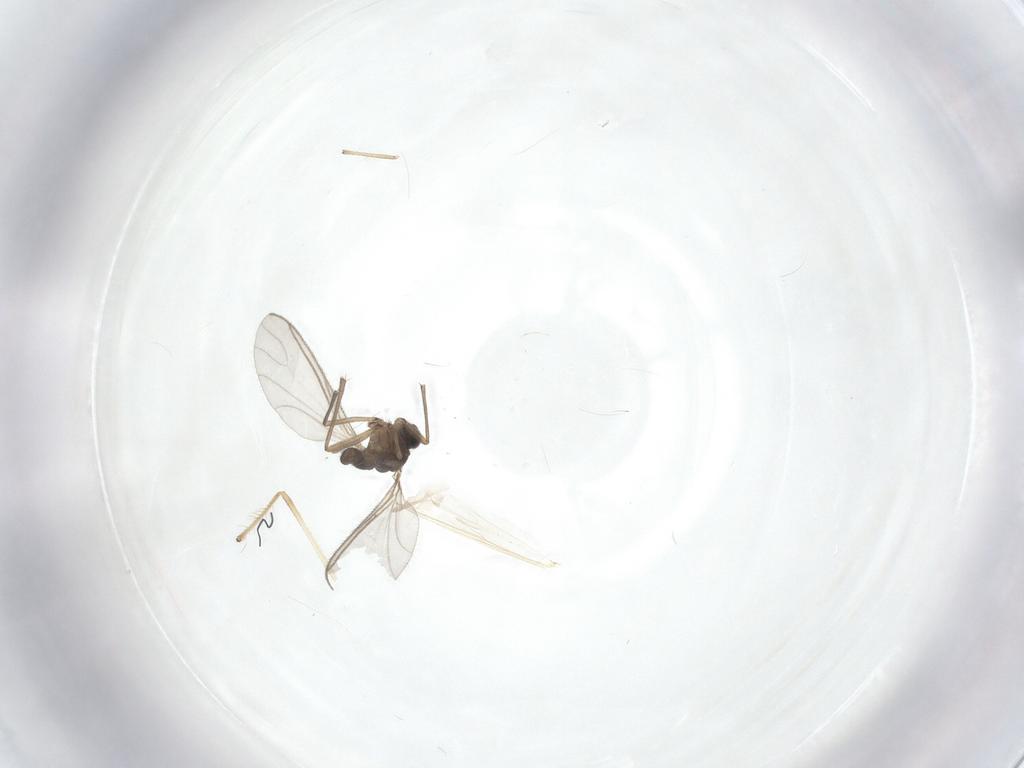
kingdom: Animalia
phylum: Arthropoda
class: Insecta
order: Diptera
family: Sciaridae
